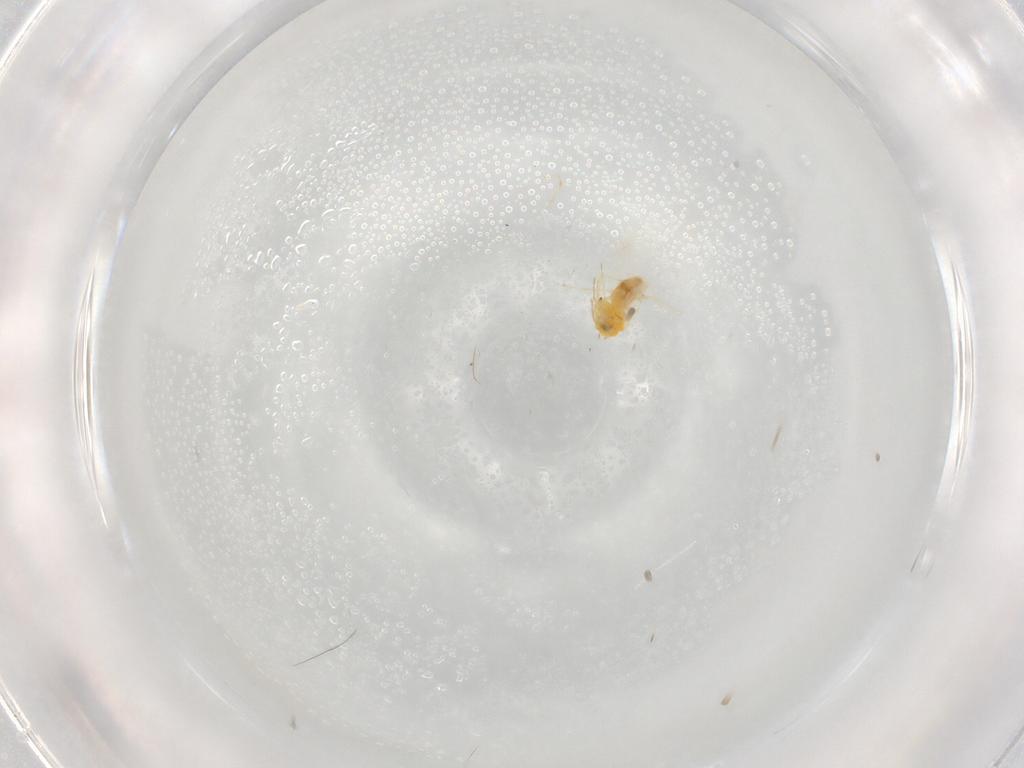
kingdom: Animalia
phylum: Arthropoda
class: Insecta
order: Hemiptera
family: Aleyrodidae
